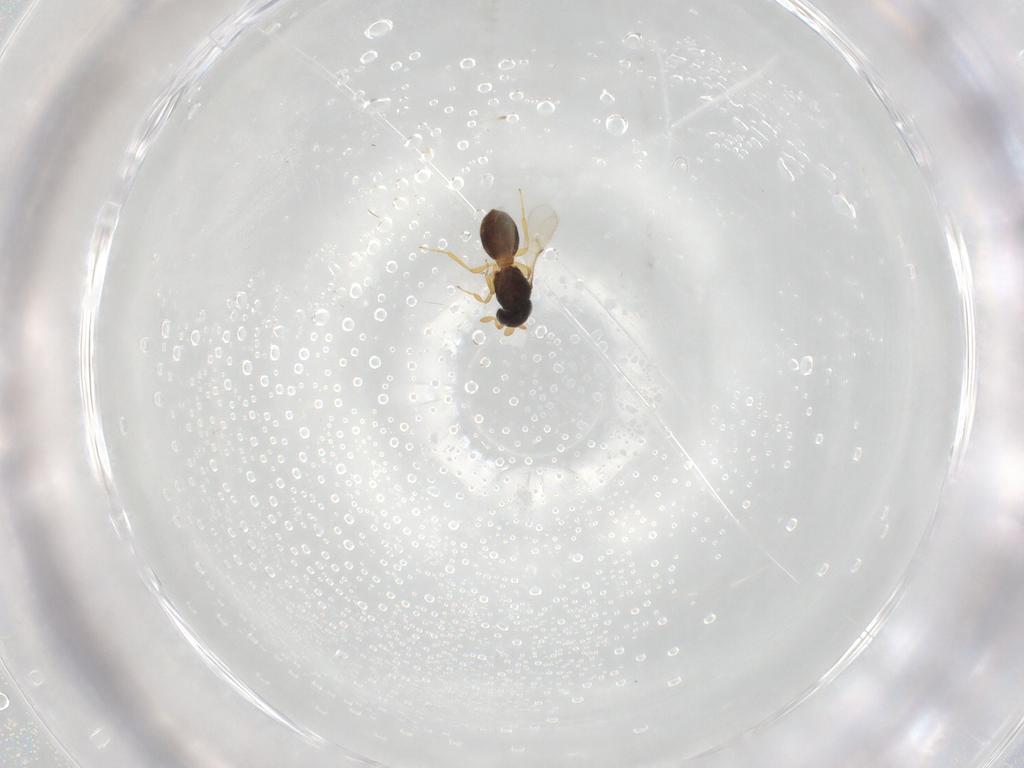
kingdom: Animalia
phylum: Arthropoda
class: Insecta
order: Hymenoptera
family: Scelionidae
